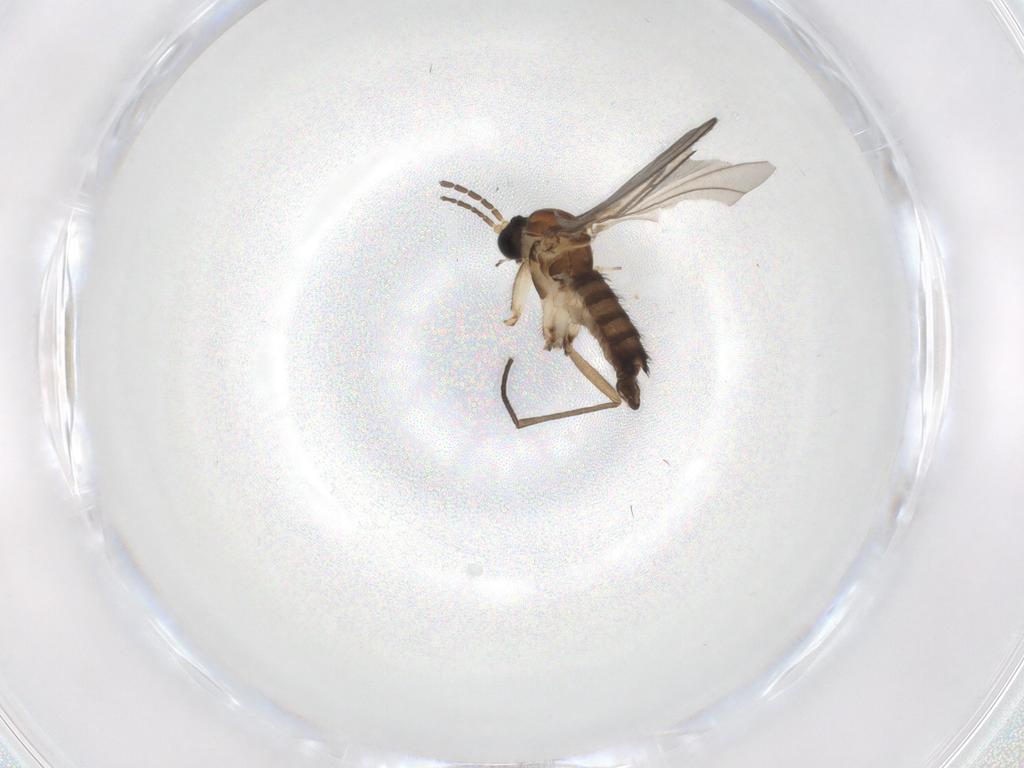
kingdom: Animalia
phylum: Arthropoda
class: Insecta
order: Diptera
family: Sciaridae
